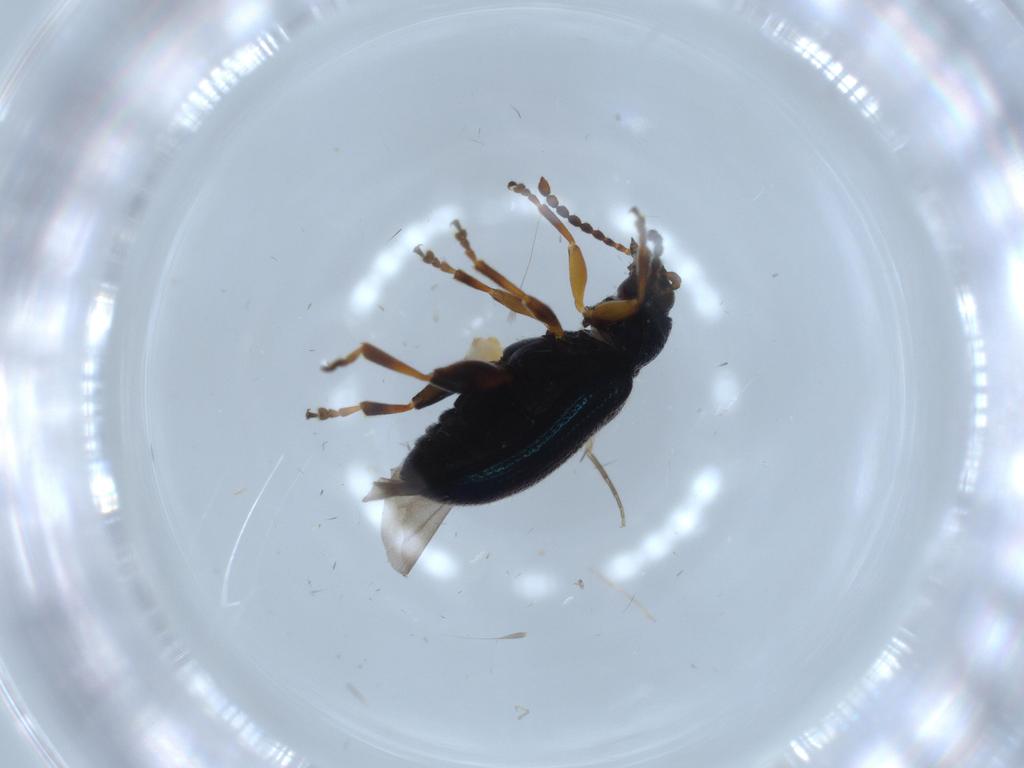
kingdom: Animalia
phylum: Arthropoda
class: Insecta
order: Coleoptera
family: Corylophidae
